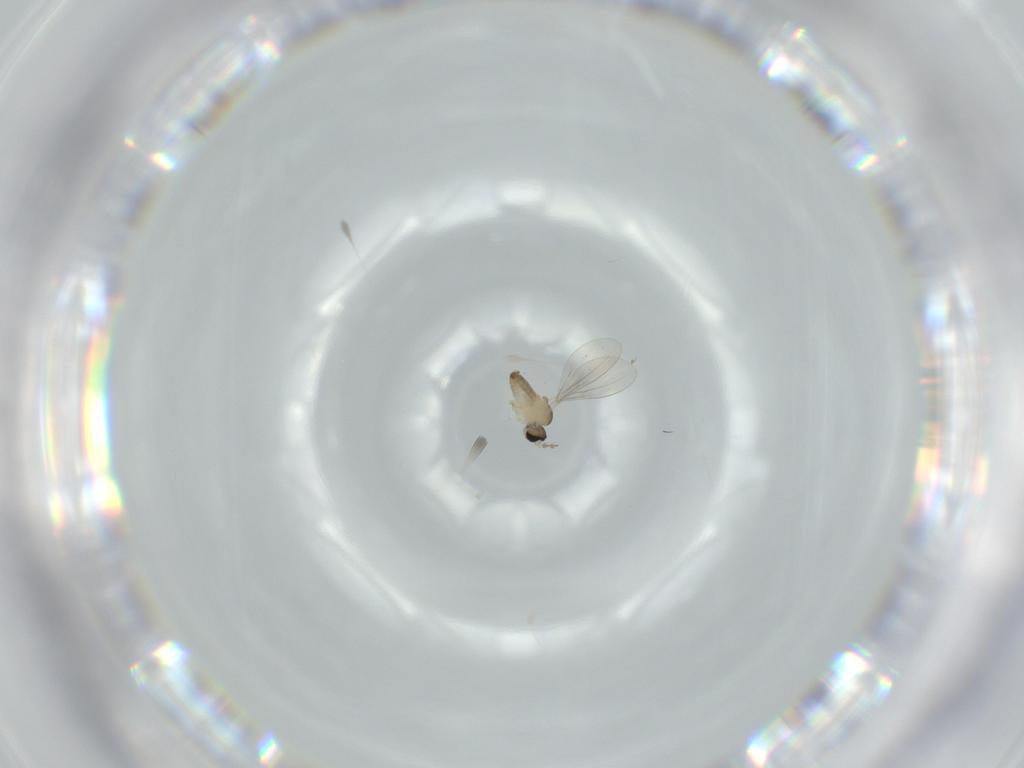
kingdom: Animalia
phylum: Arthropoda
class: Insecta
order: Diptera
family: Cecidomyiidae
